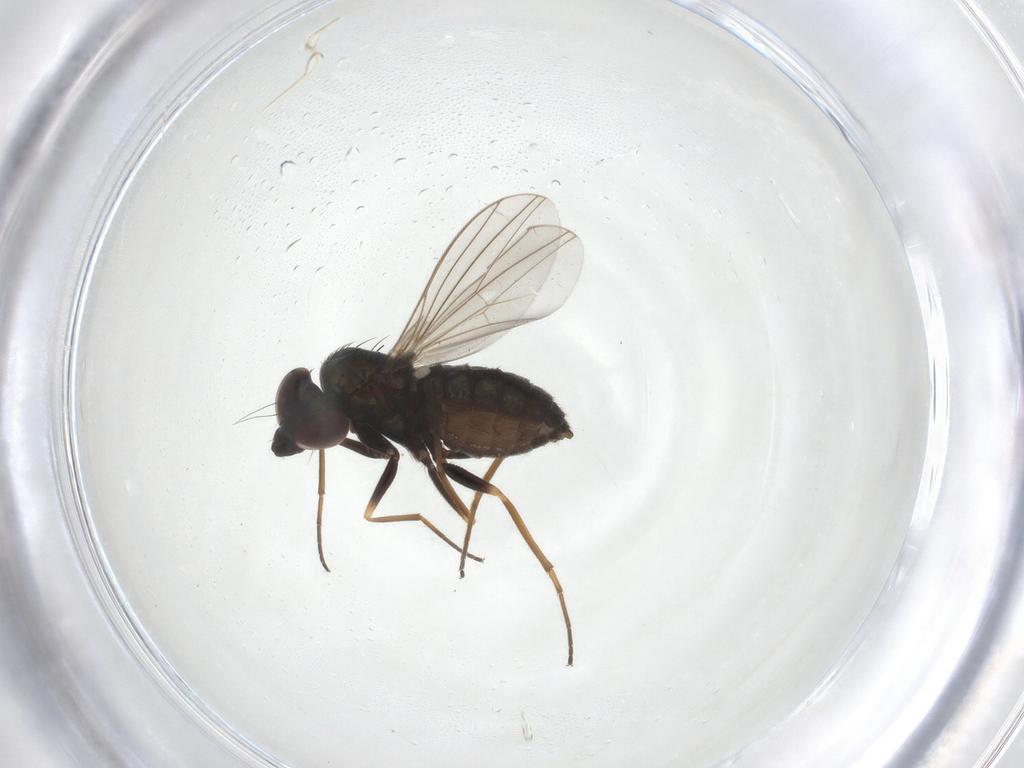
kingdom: Animalia
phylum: Arthropoda
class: Insecta
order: Diptera
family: Dolichopodidae
